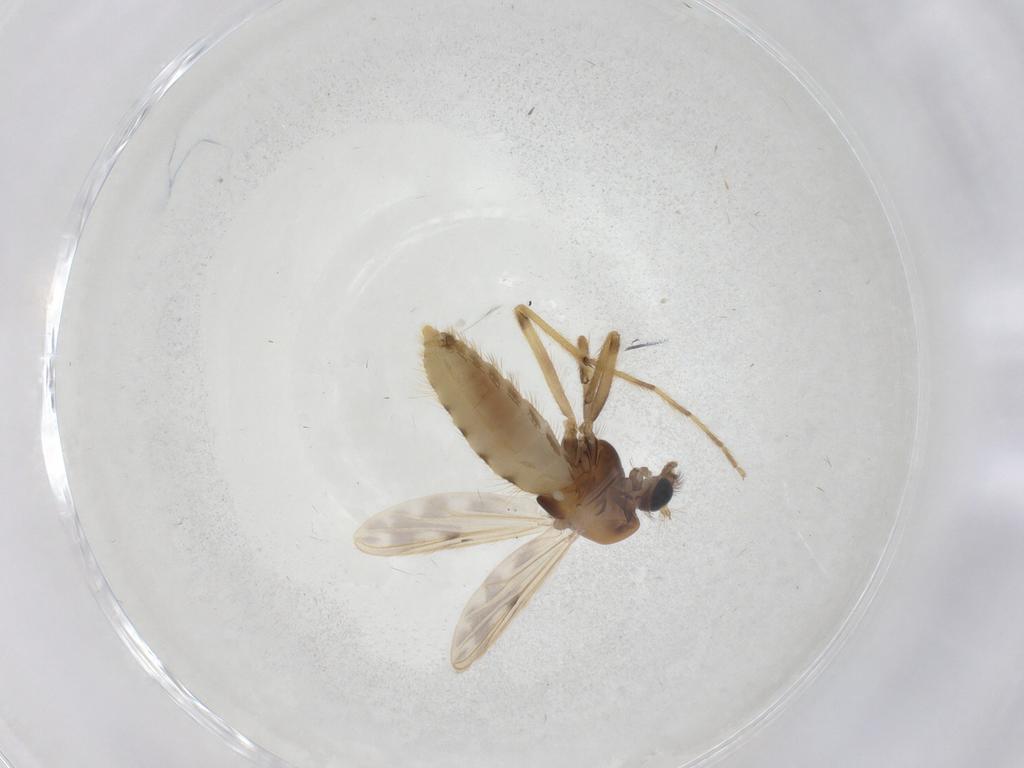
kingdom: Animalia
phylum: Arthropoda
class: Insecta
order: Diptera
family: Chironomidae
